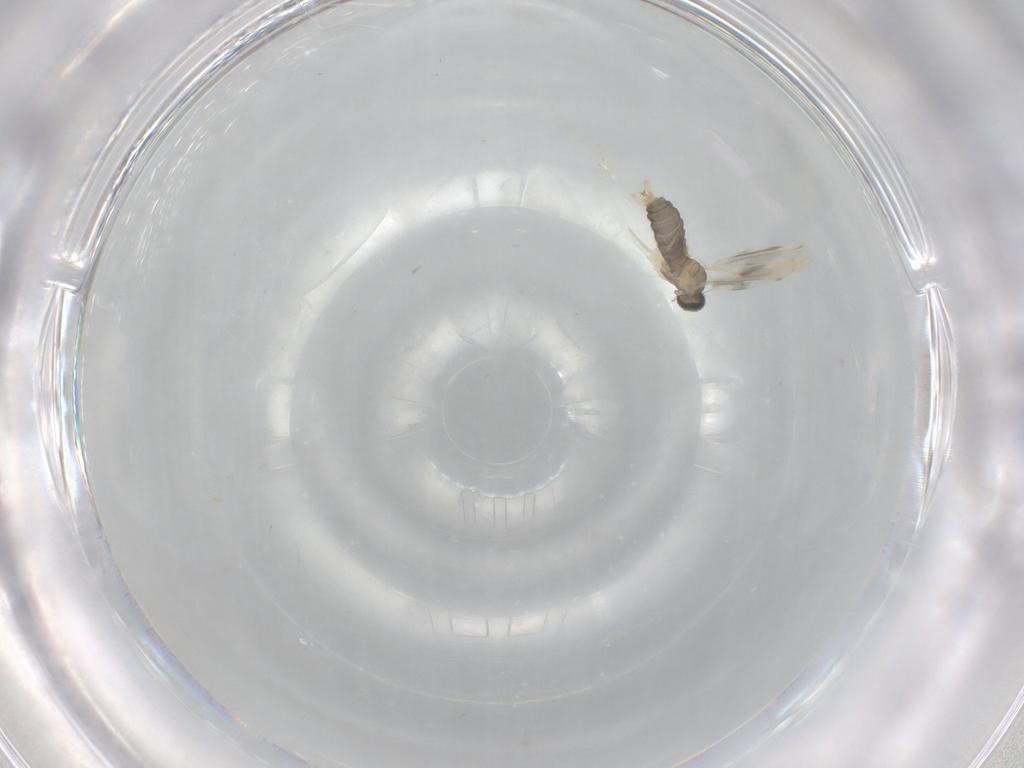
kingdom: Animalia
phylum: Arthropoda
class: Insecta
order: Diptera
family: Cecidomyiidae
